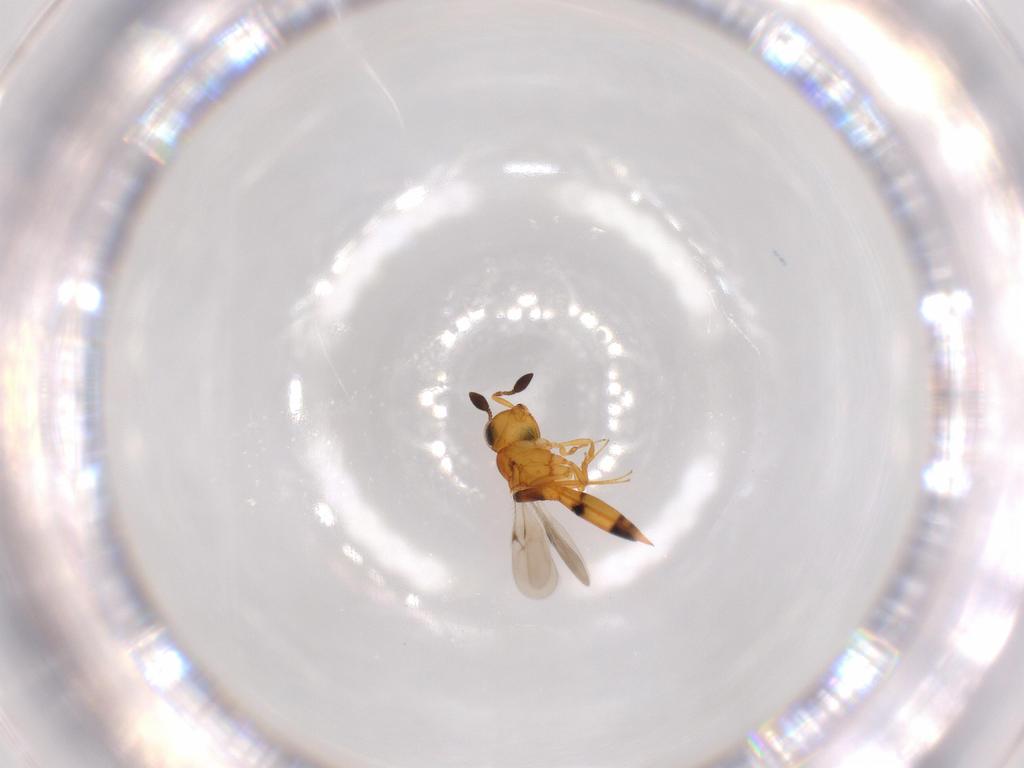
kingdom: Animalia
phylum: Arthropoda
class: Insecta
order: Hymenoptera
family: Scelionidae
